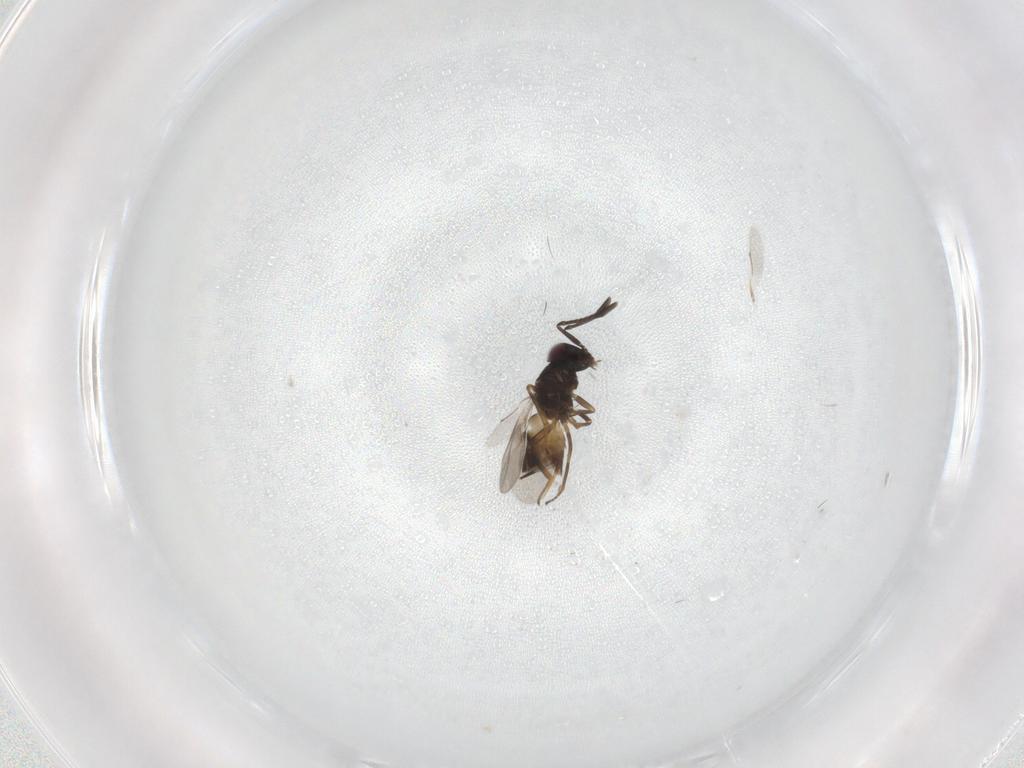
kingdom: Animalia
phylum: Arthropoda
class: Insecta
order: Hymenoptera
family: Encyrtidae
